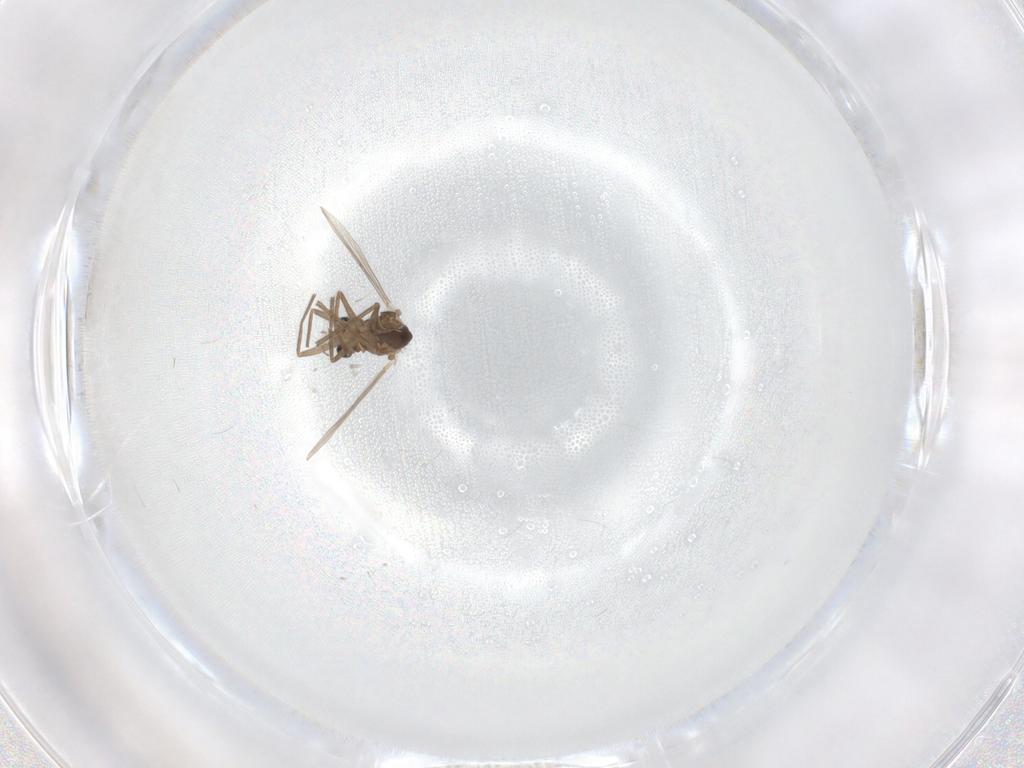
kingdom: Animalia
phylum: Arthropoda
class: Insecta
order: Diptera
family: Chironomidae
